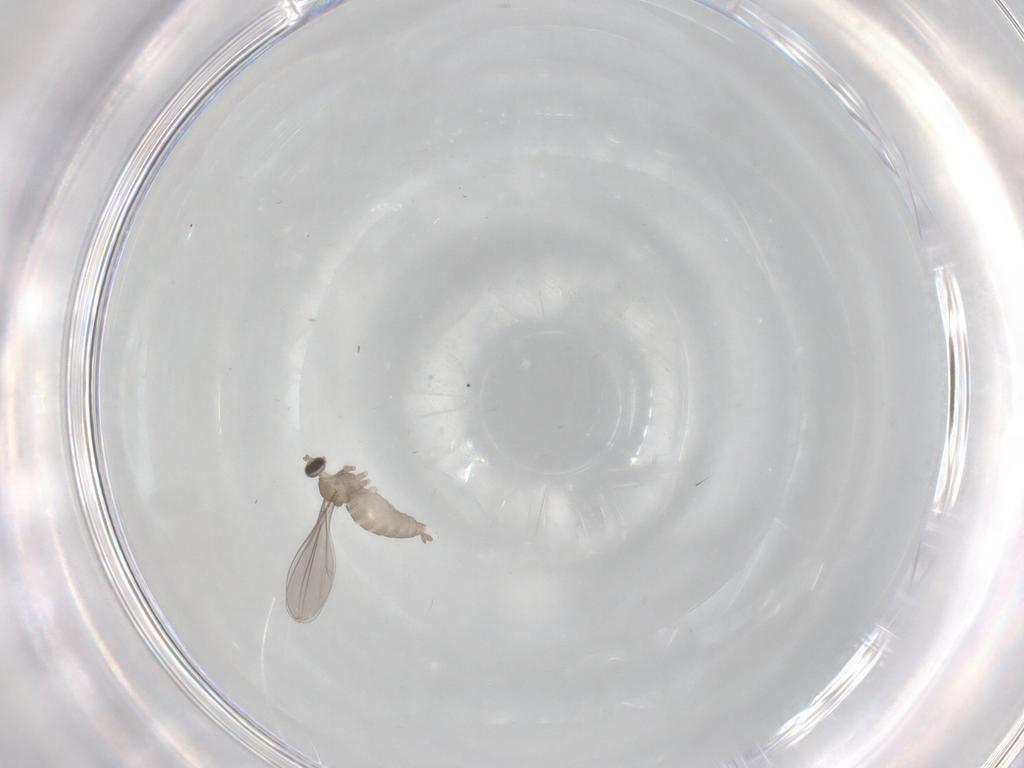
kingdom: Animalia
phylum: Arthropoda
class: Insecta
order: Diptera
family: Cecidomyiidae
